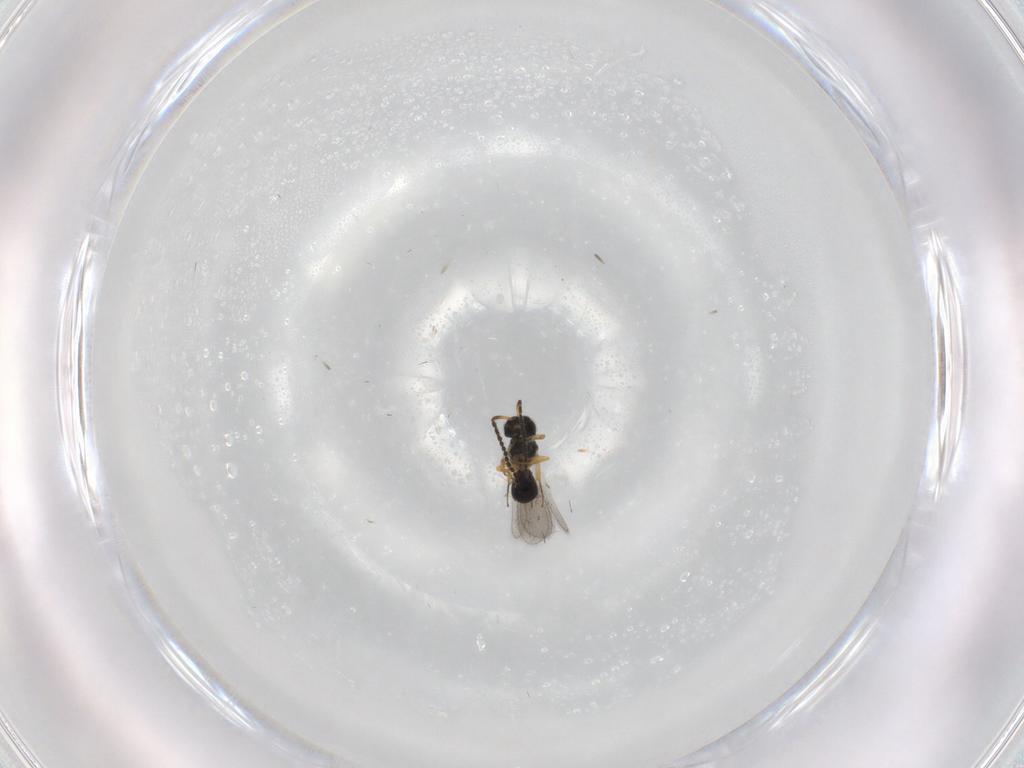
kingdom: Animalia
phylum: Arthropoda
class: Insecta
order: Hymenoptera
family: Scelionidae
